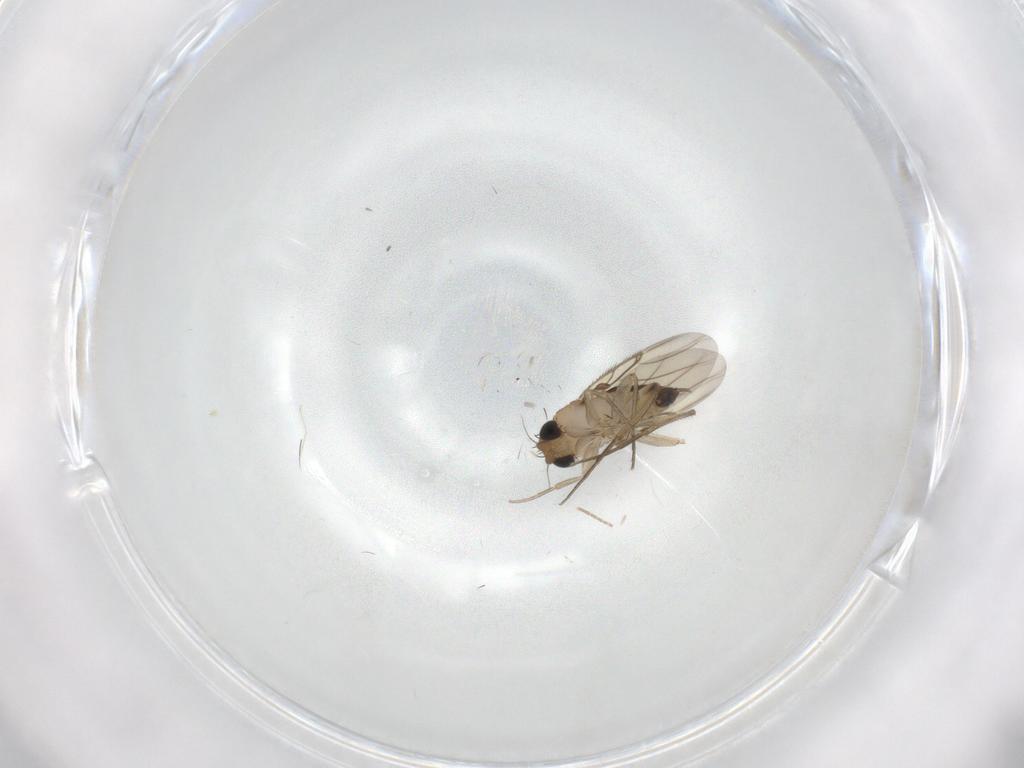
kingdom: Animalia
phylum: Arthropoda
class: Insecta
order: Diptera
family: Phoridae
